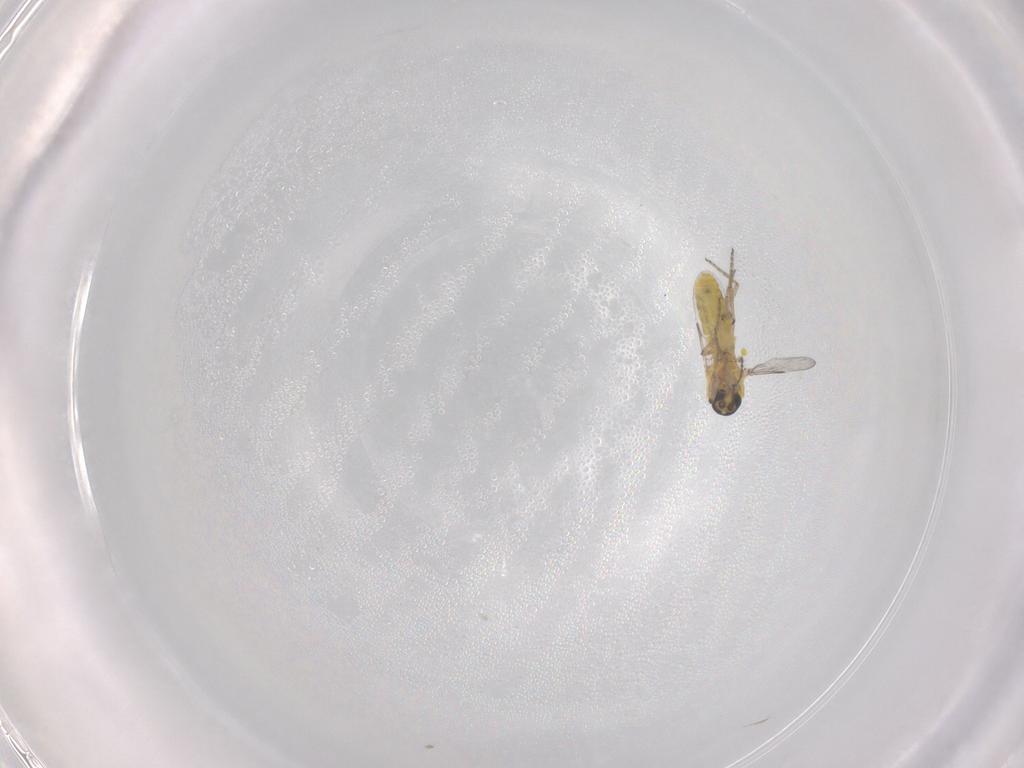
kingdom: Animalia
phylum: Arthropoda
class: Insecta
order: Diptera
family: Ceratopogonidae
